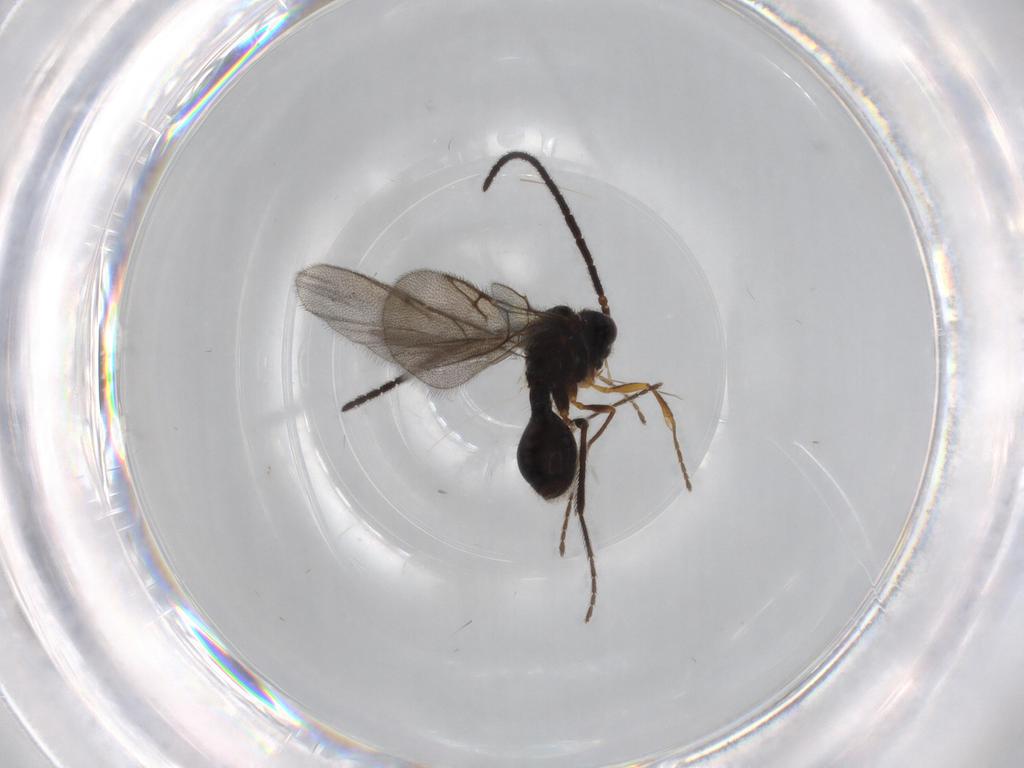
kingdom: Animalia
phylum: Arthropoda
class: Insecta
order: Hymenoptera
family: Diapriidae
